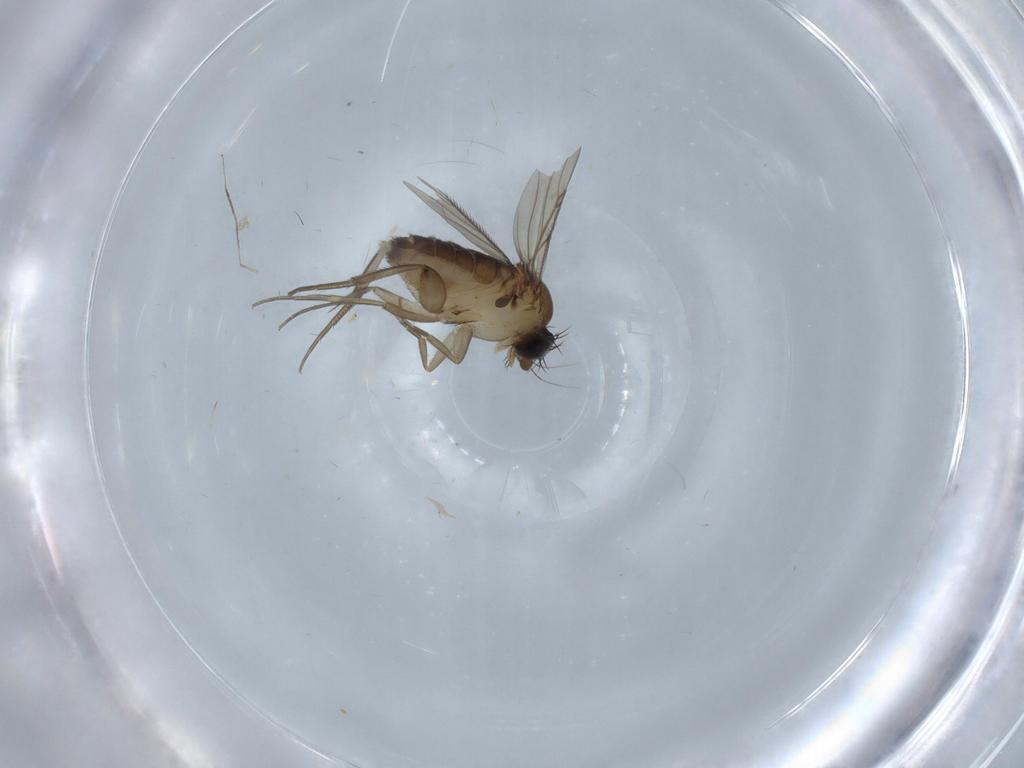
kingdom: Animalia
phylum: Arthropoda
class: Insecta
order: Diptera
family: Phoridae
